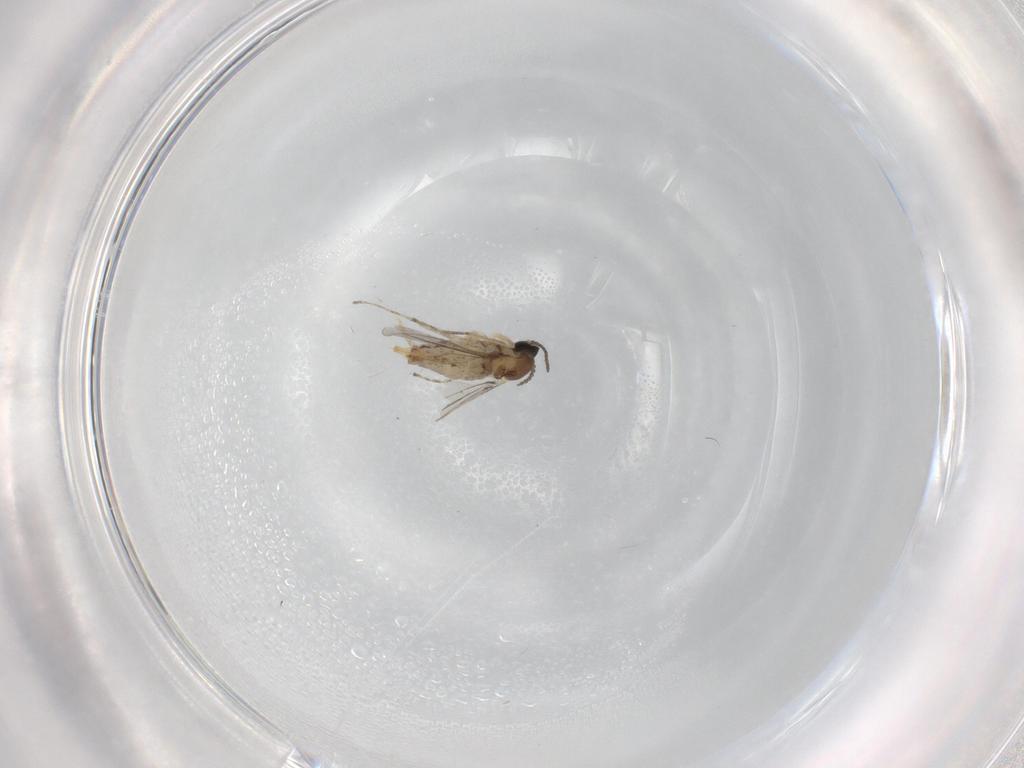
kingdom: Animalia
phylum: Arthropoda
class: Insecta
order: Diptera
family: Cecidomyiidae
